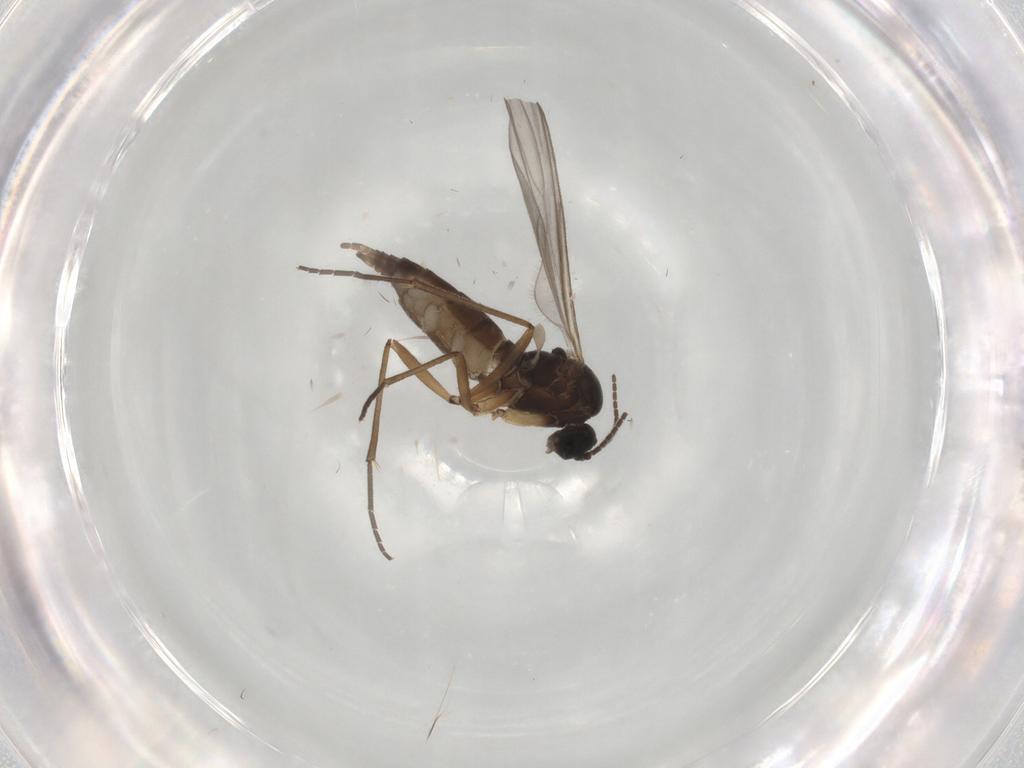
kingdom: Animalia
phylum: Arthropoda
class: Insecta
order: Diptera
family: Sciaridae
